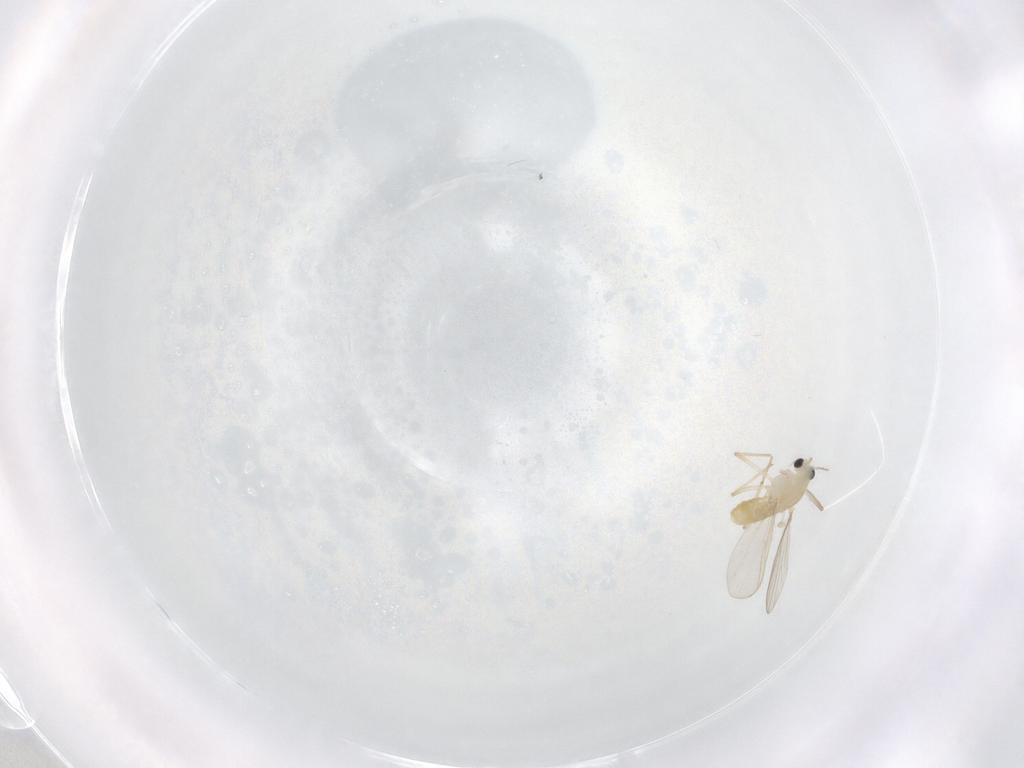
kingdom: Animalia
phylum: Arthropoda
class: Insecta
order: Diptera
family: Chironomidae
